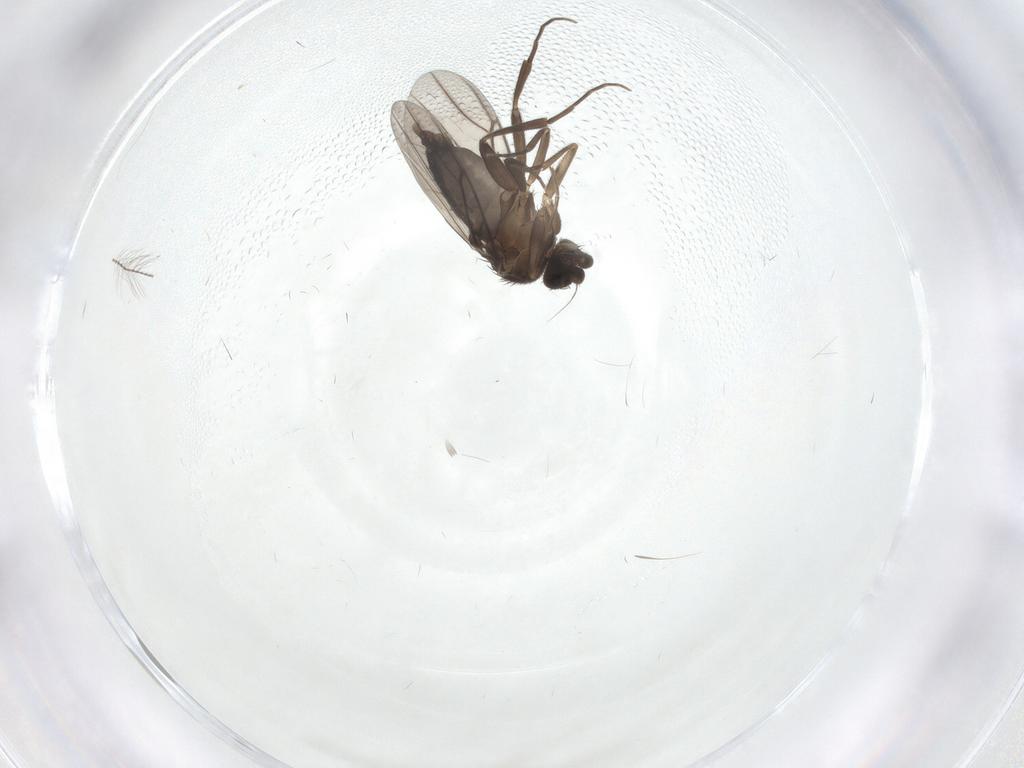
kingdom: Animalia
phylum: Arthropoda
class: Insecta
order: Diptera
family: Phoridae
